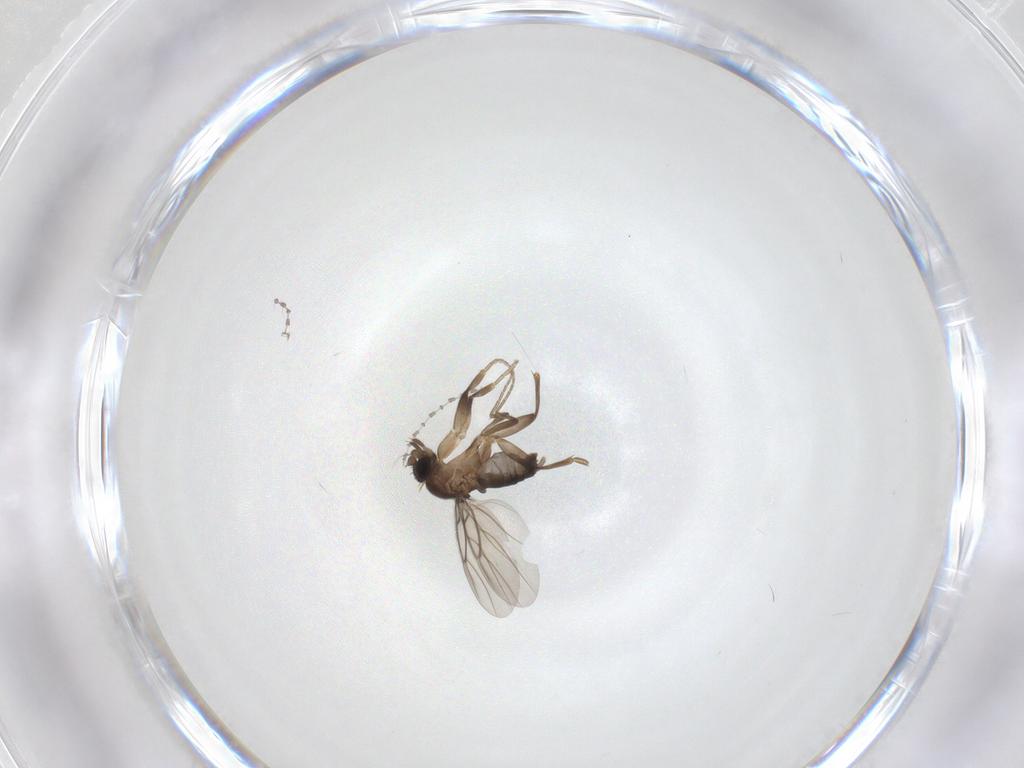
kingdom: Animalia
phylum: Arthropoda
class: Insecta
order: Diptera
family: Cecidomyiidae
